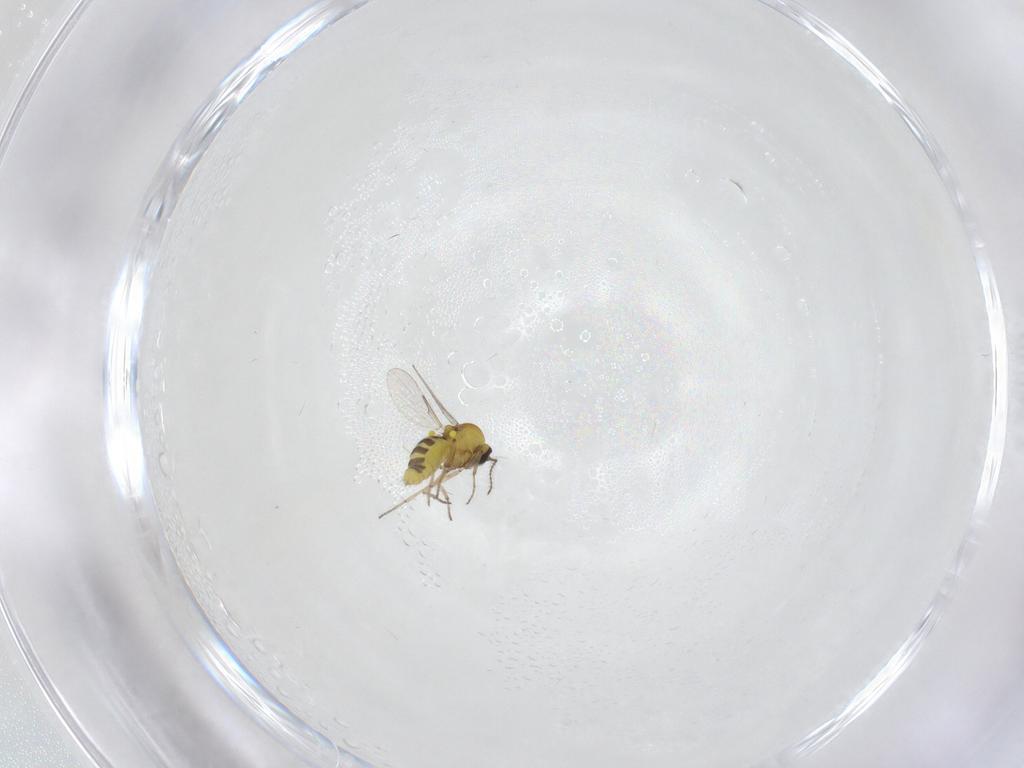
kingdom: Animalia
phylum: Arthropoda
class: Insecta
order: Diptera
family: Ceratopogonidae
